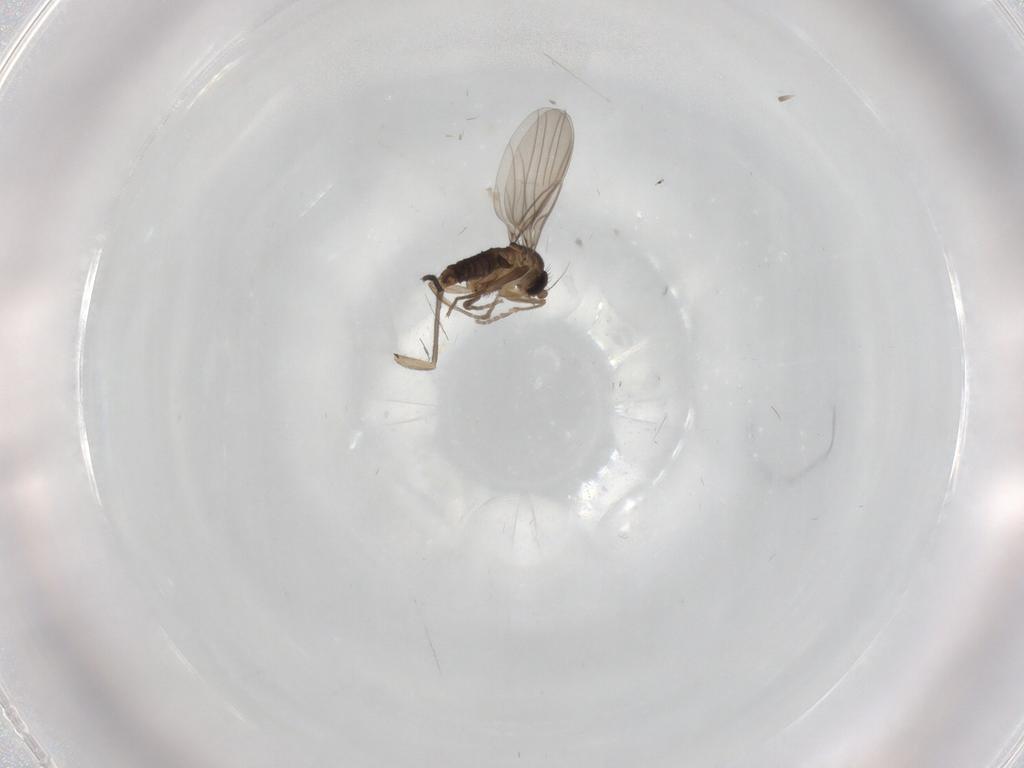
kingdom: Animalia
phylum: Arthropoda
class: Insecta
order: Diptera
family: Sciaridae
